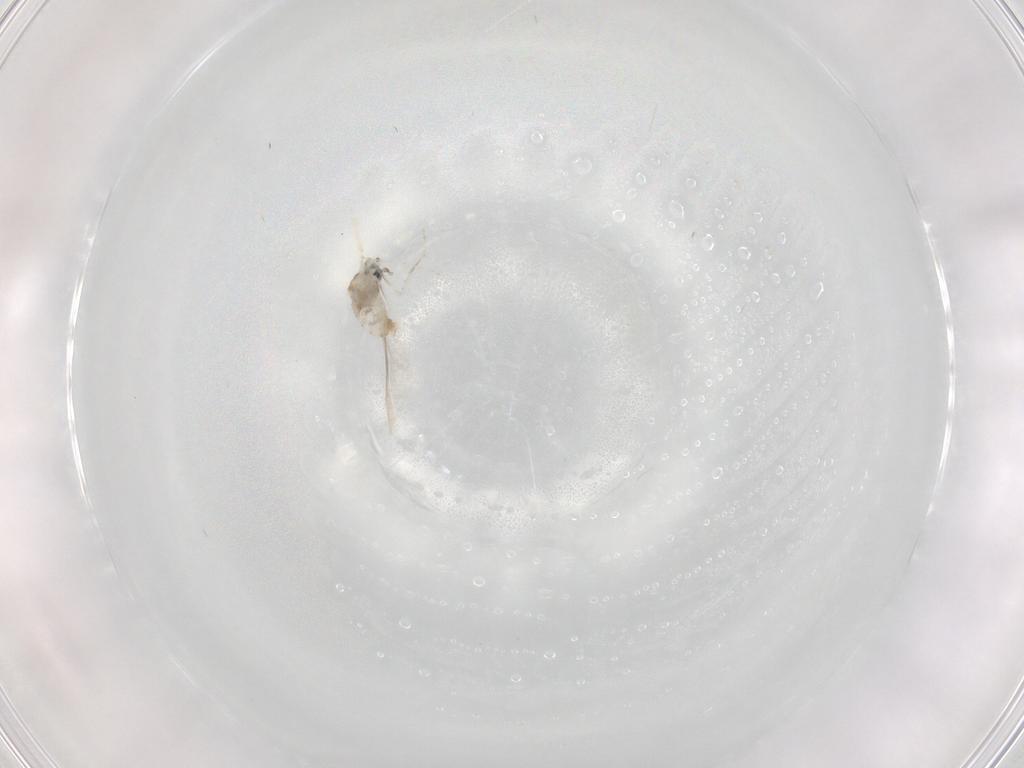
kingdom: Animalia
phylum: Arthropoda
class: Insecta
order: Diptera
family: Cecidomyiidae
